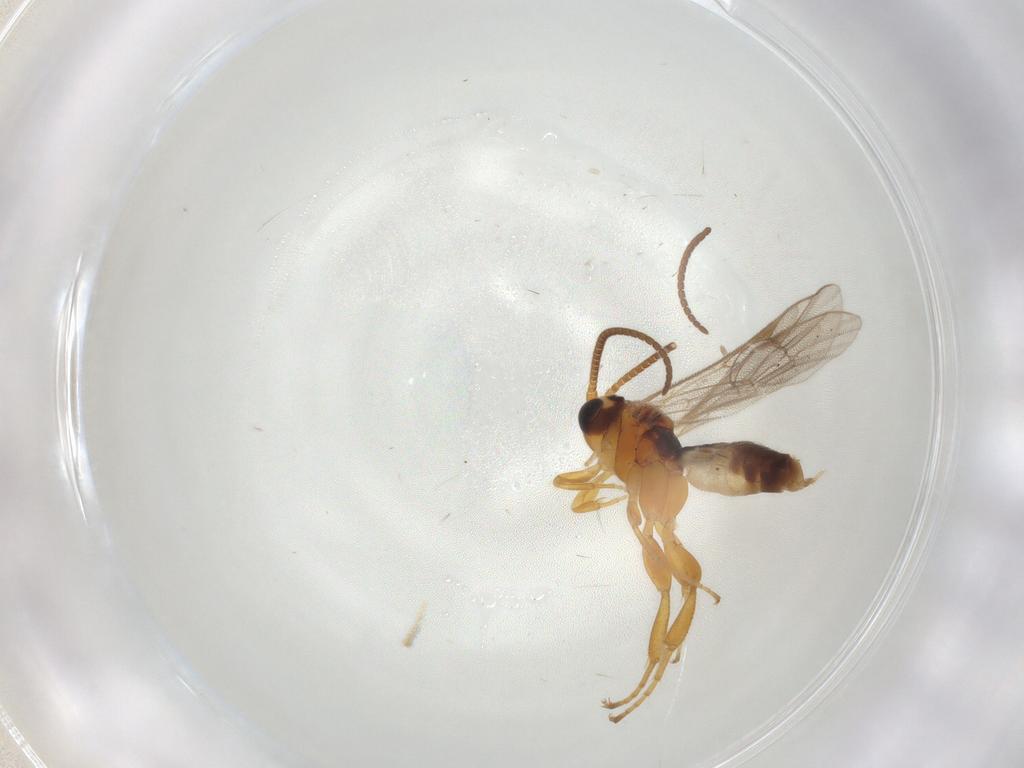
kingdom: Animalia
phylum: Arthropoda
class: Insecta
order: Hymenoptera
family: Ichneumonidae
